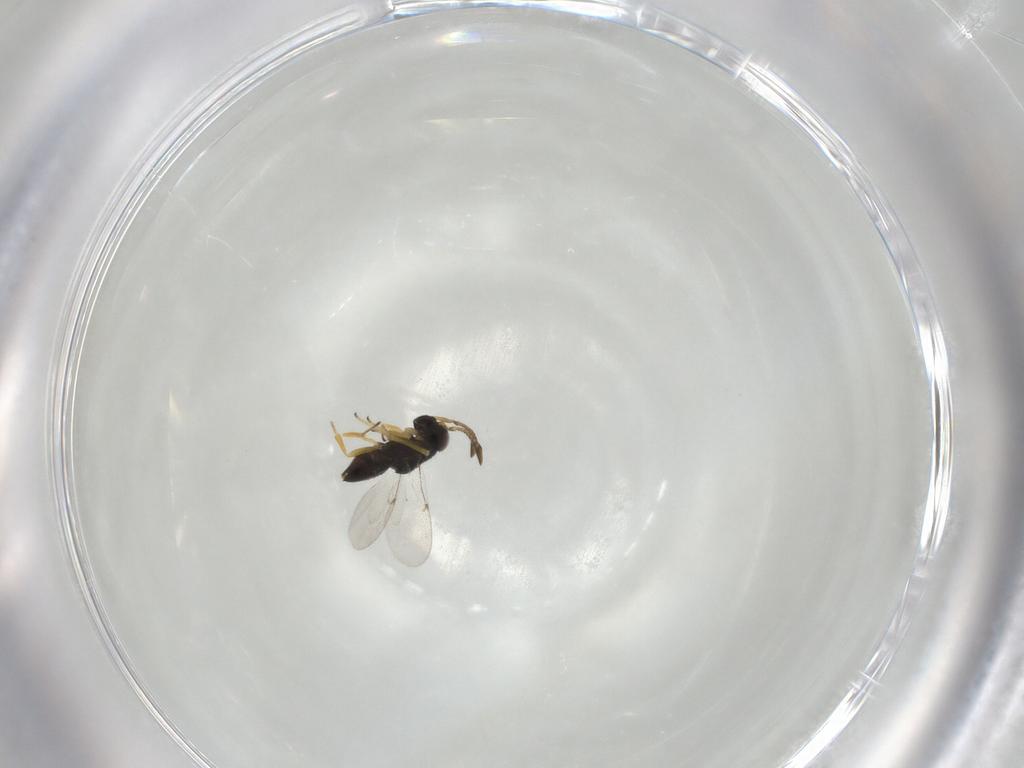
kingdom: Animalia
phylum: Arthropoda
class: Insecta
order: Hymenoptera
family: Encyrtidae
